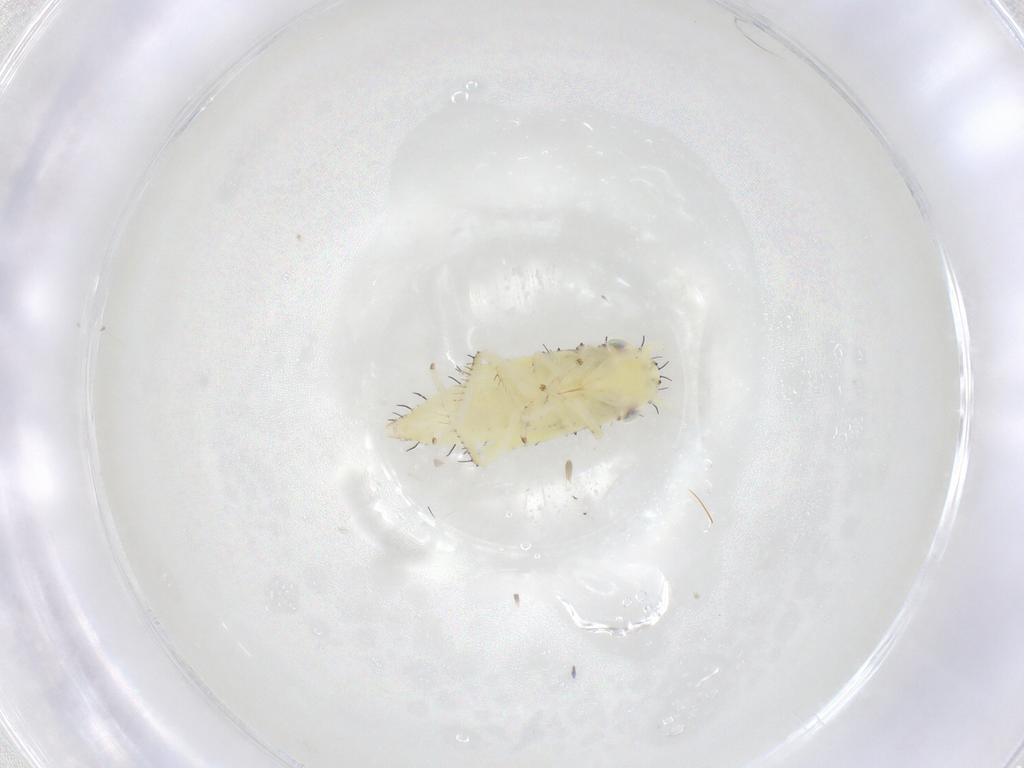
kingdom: Animalia
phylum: Arthropoda
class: Insecta
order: Hemiptera
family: Cicadellidae
